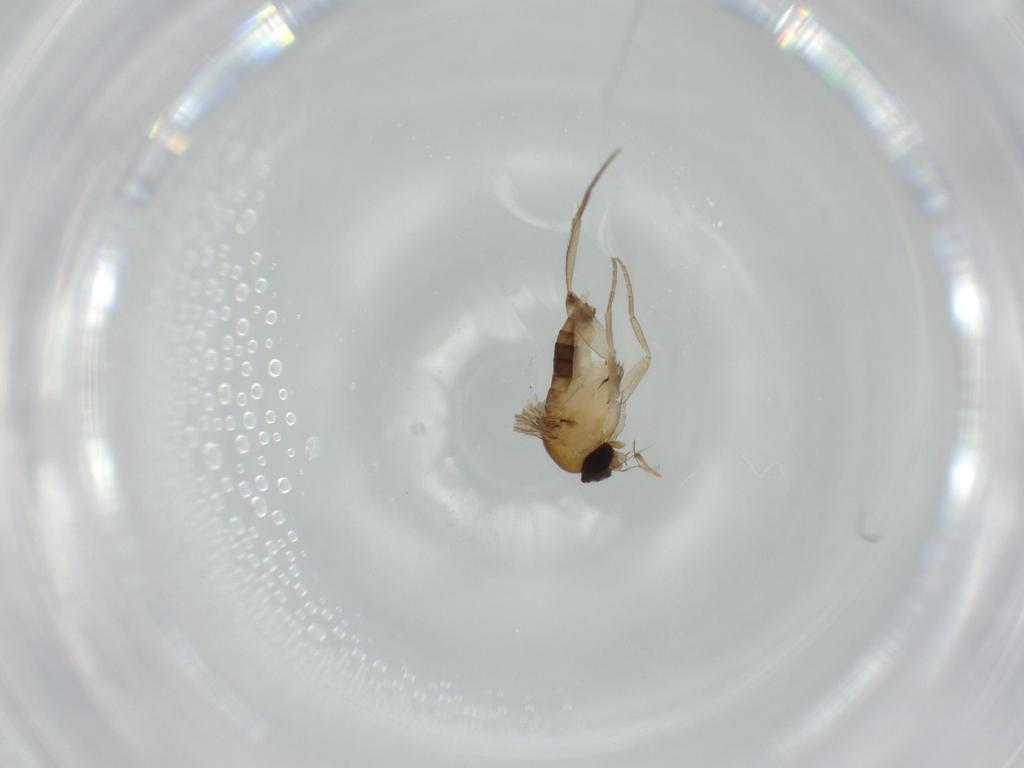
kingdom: Animalia
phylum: Arthropoda
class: Insecta
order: Diptera
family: Phoridae
